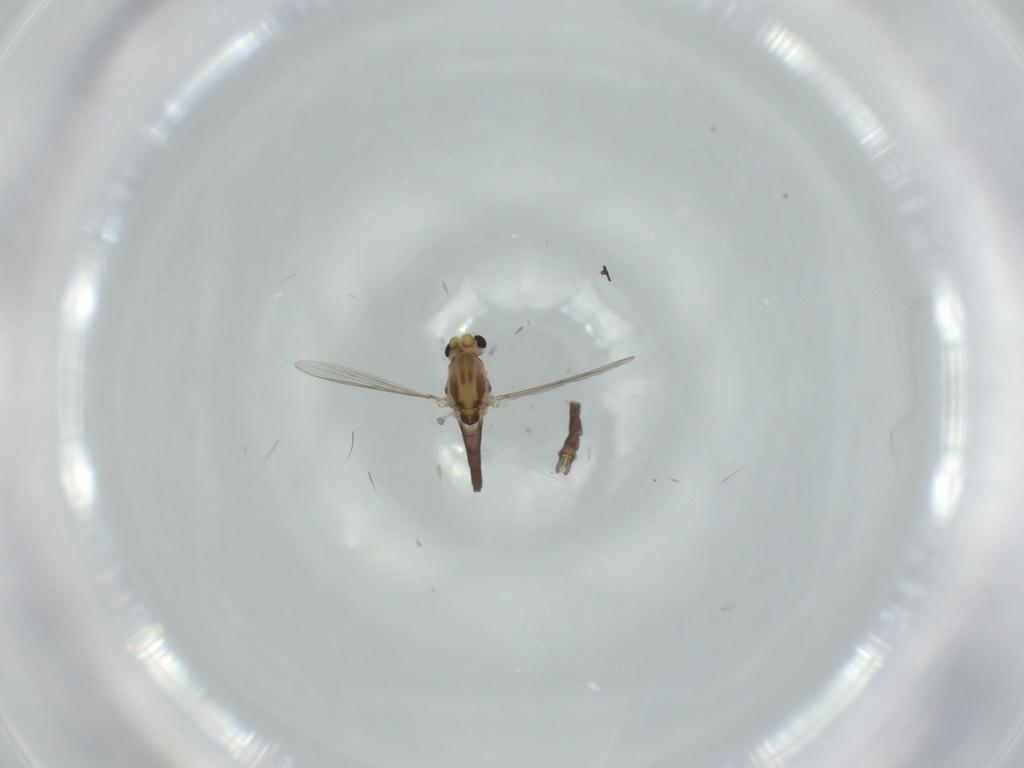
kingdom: Animalia
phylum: Arthropoda
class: Insecta
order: Diptera
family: Chironomidae
